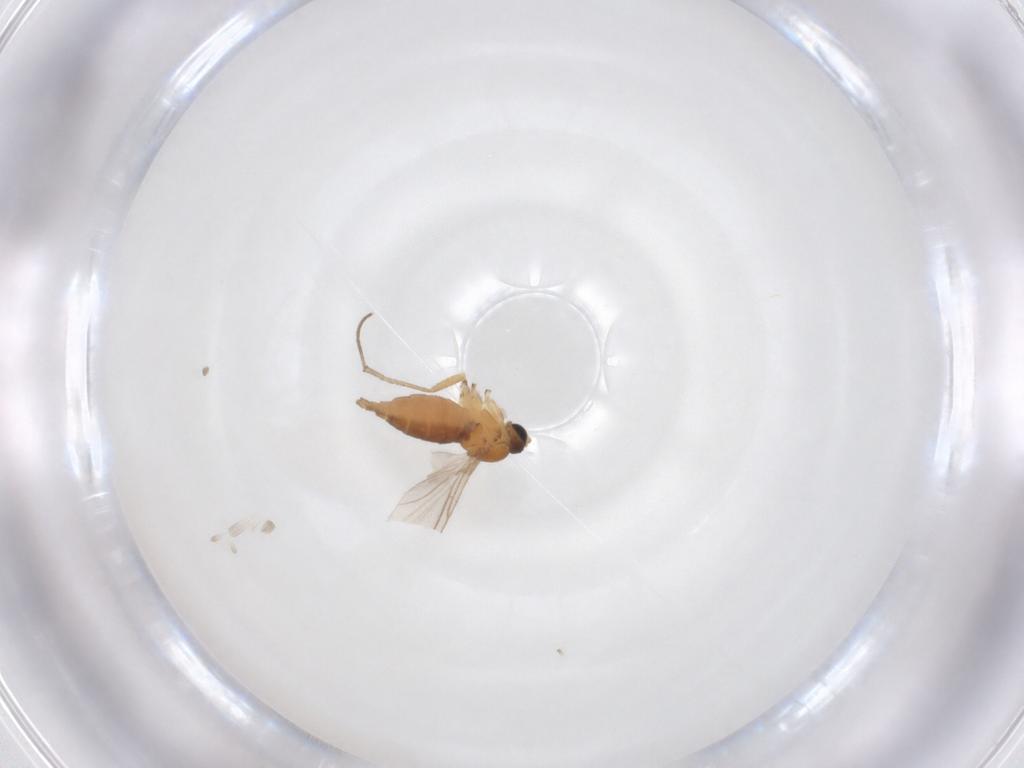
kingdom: Animalia
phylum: Arthropoda
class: Insecta
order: Diptera
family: Sciaridae
